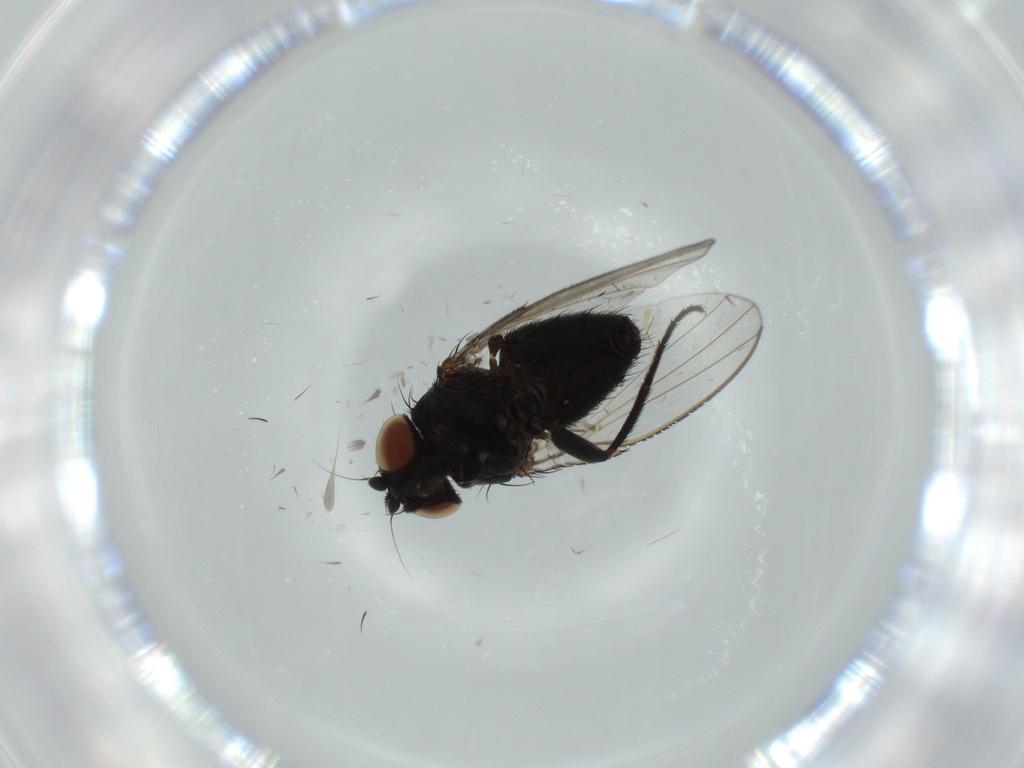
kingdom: Animalia
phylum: Arthropoda
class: Insecta
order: Diptera
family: Milichiidae
